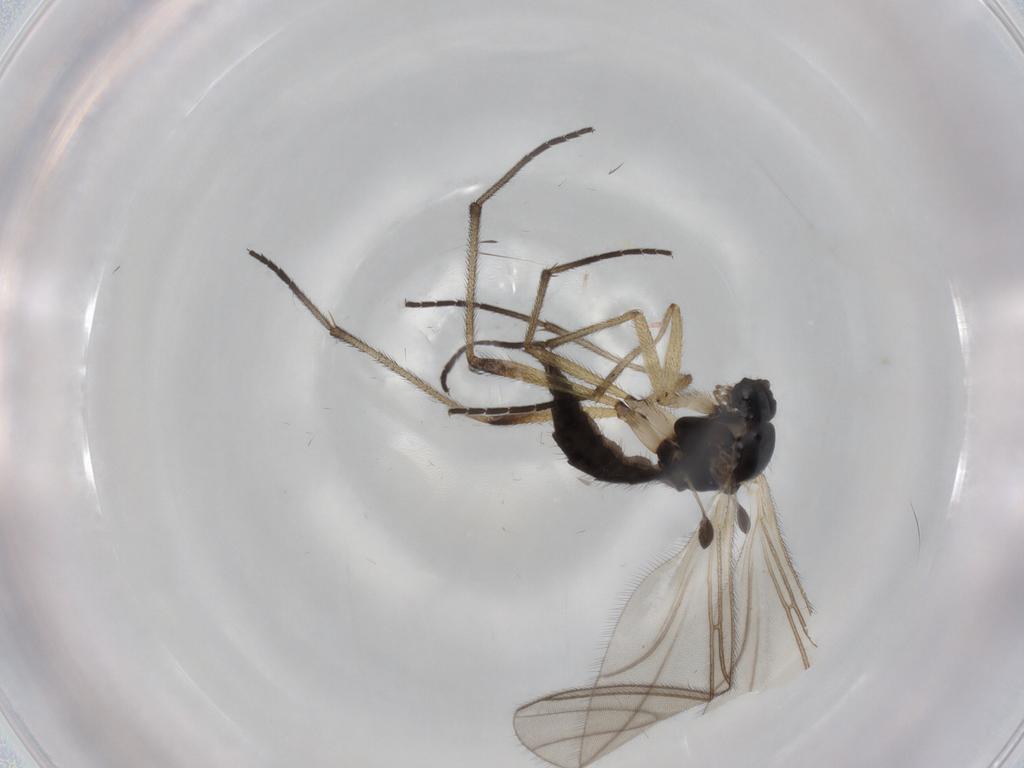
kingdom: Animalia
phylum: Arthropoda
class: Insecta
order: Diptera
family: Sciaridae
